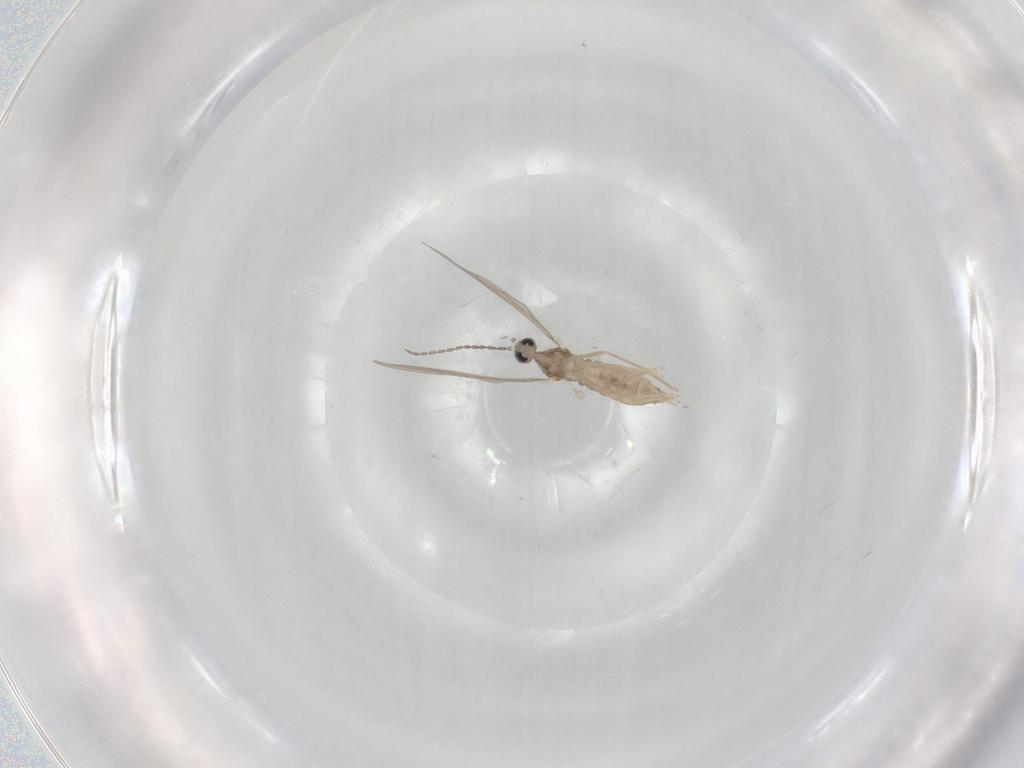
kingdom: Animalia
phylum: Arthropoda
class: Insecta
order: Diptera
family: Cecidomyiidae
